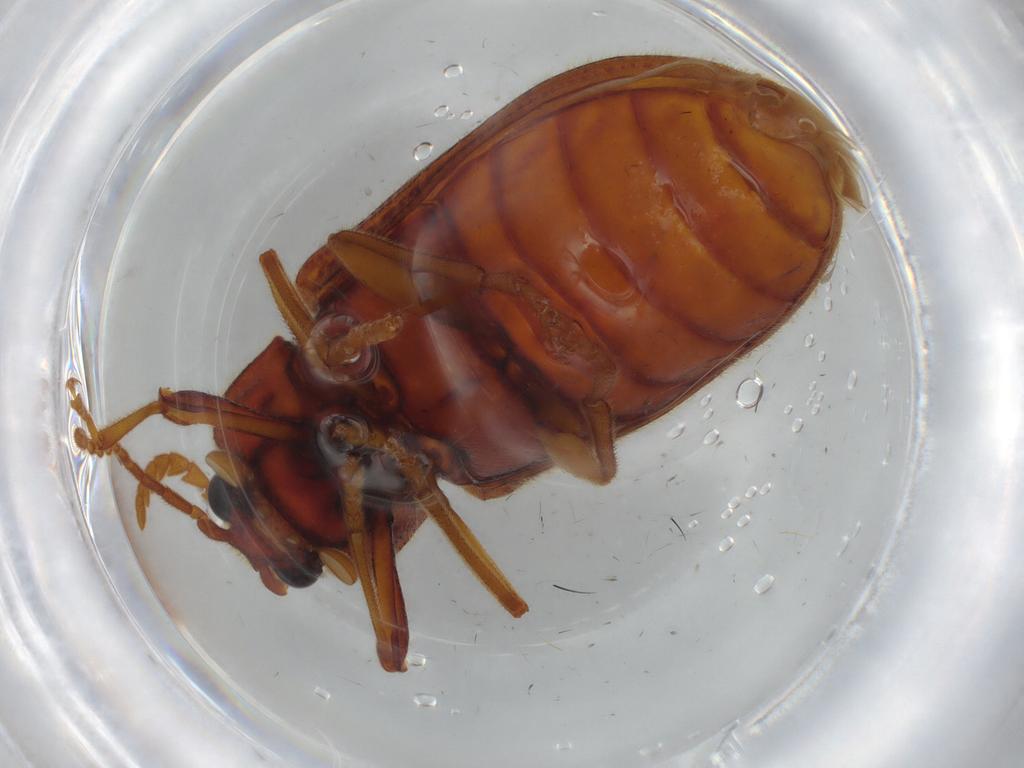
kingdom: Animalia
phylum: Arthropoda
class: Insecta
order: Coleoptera
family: Cerophytidae
